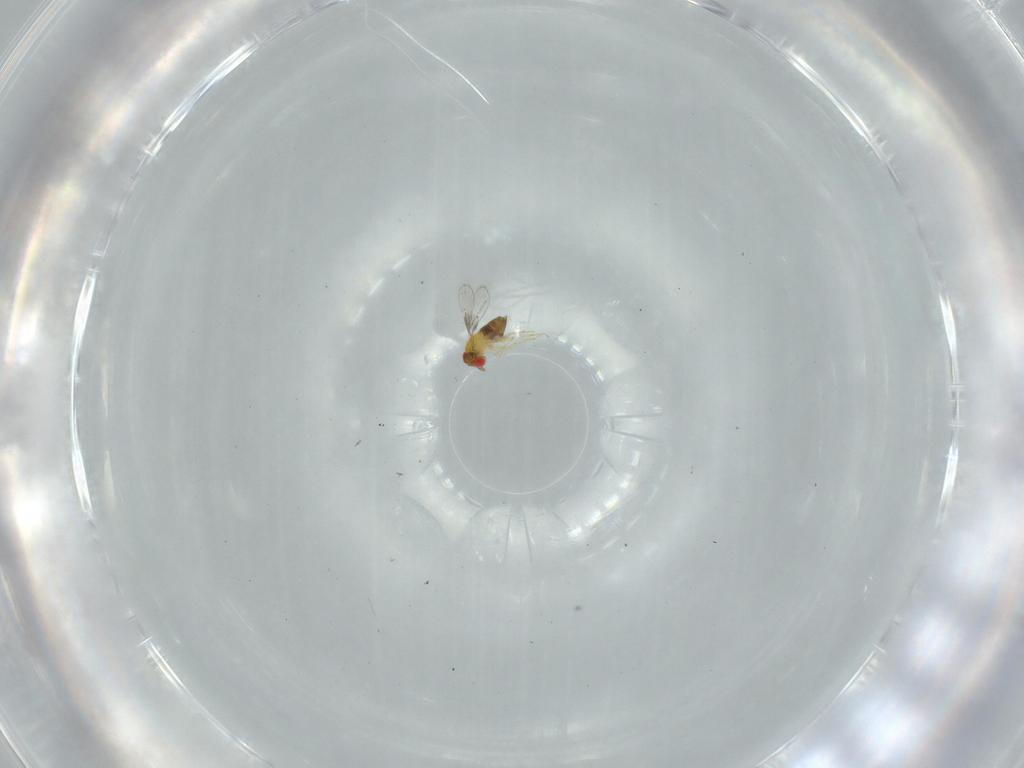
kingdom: Animalia
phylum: Arthropoda
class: Insecta
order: Hymenoptera
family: Trichogrammatidae
